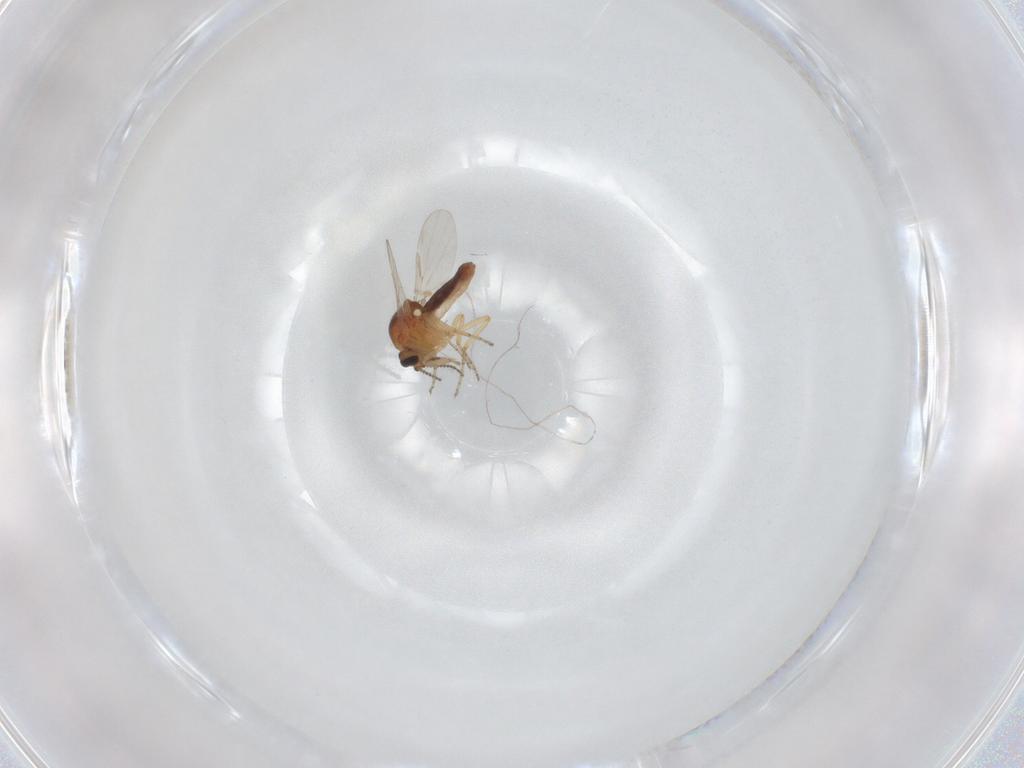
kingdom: Animalia
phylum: Arthropoda
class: Insecta
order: Diptera
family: Ceratopogonidae
